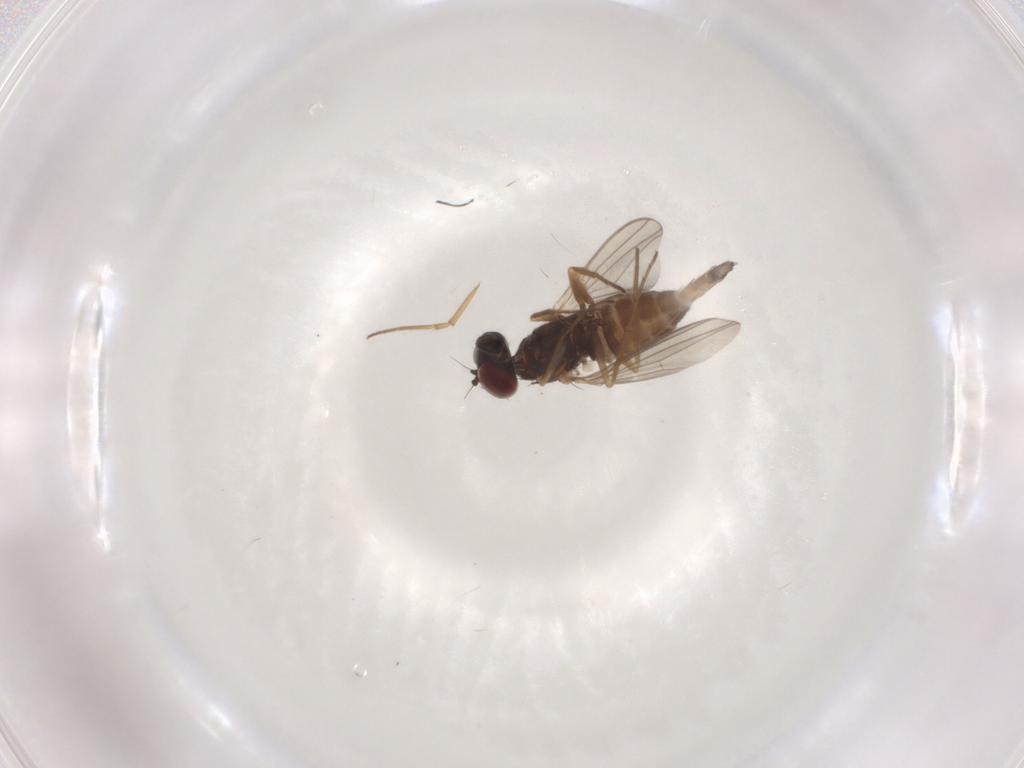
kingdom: Animalia
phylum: Arthropoda
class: Insecta
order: Diptera
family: Dolichopodidae
